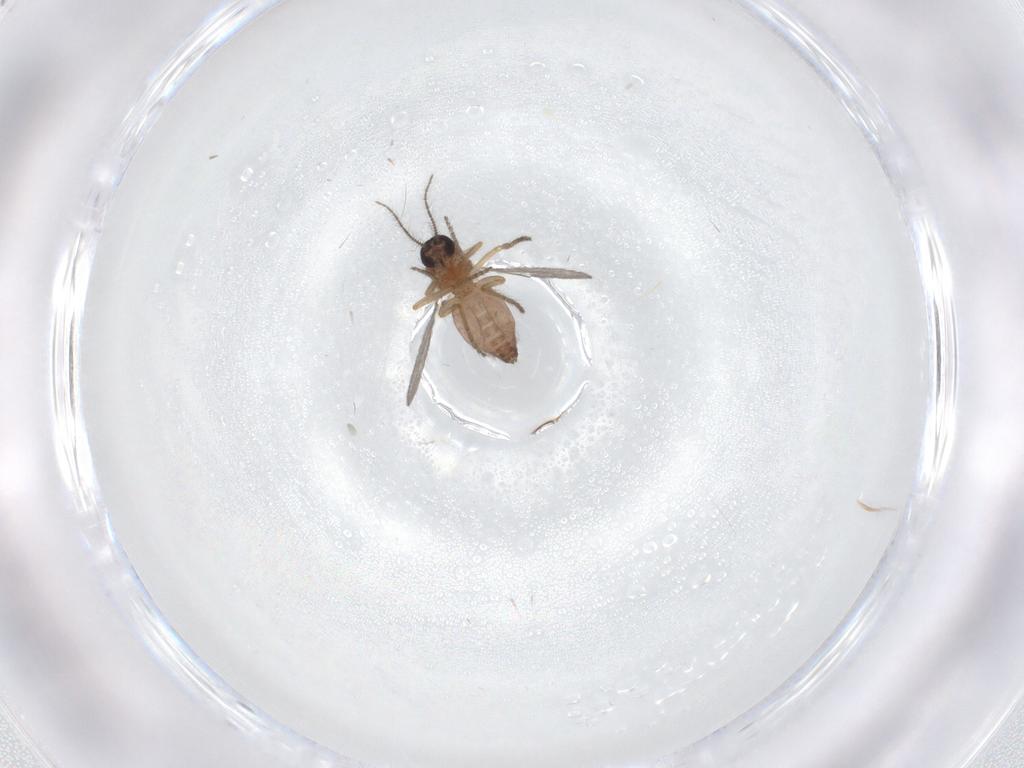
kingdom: Animalia
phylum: Arthropoda
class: Insecta
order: Diptera
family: Ceratopogonidae
